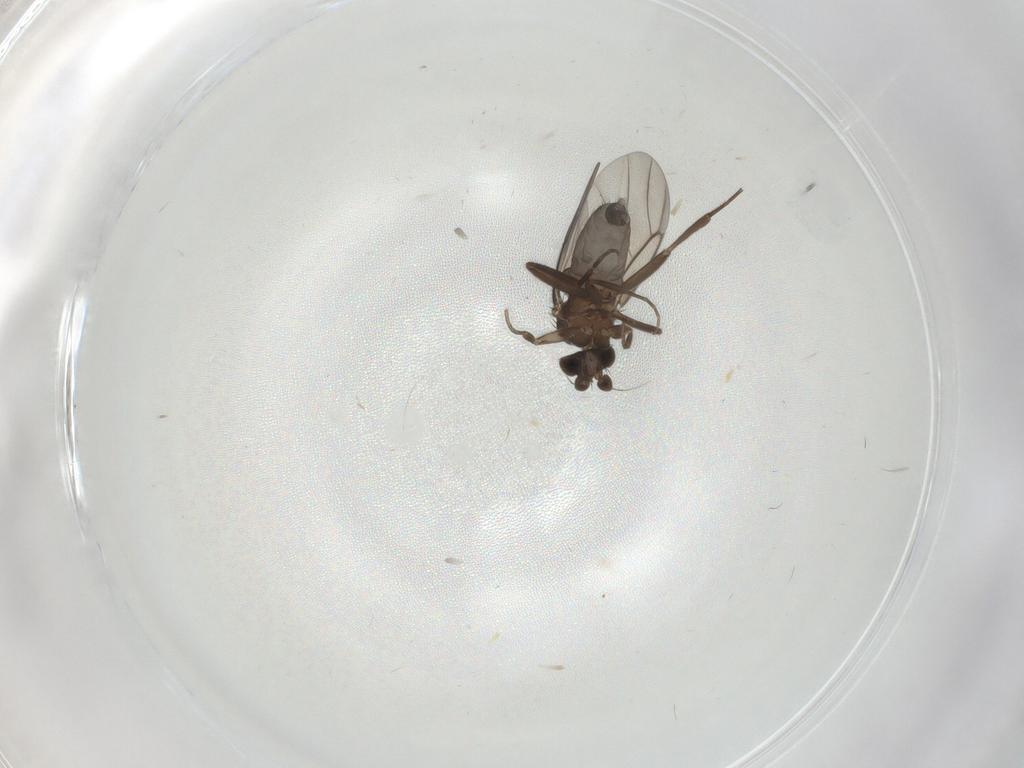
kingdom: Animalia
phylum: Arthropoda
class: Insecta
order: Diptera
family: Phoridae
